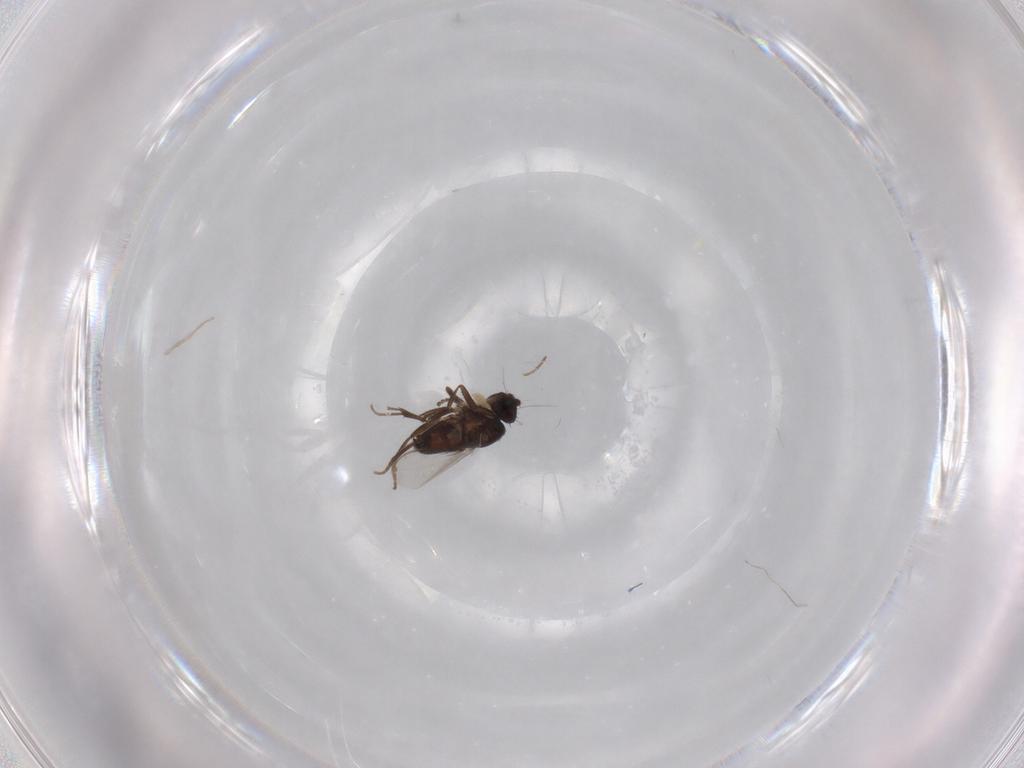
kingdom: Animalia
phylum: Arthropoda
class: Insecta
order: Diptera
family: Sphaeroceridae
